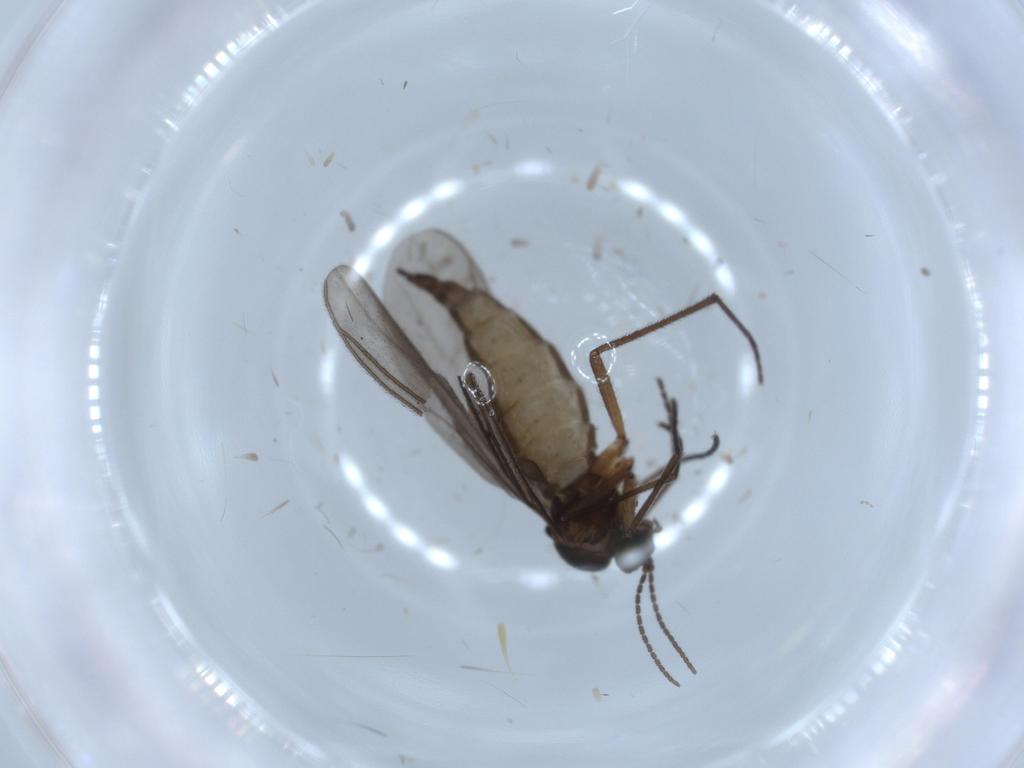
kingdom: Animalia
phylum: Arthropoda
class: Insecta
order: Diptera
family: Sciaridae
